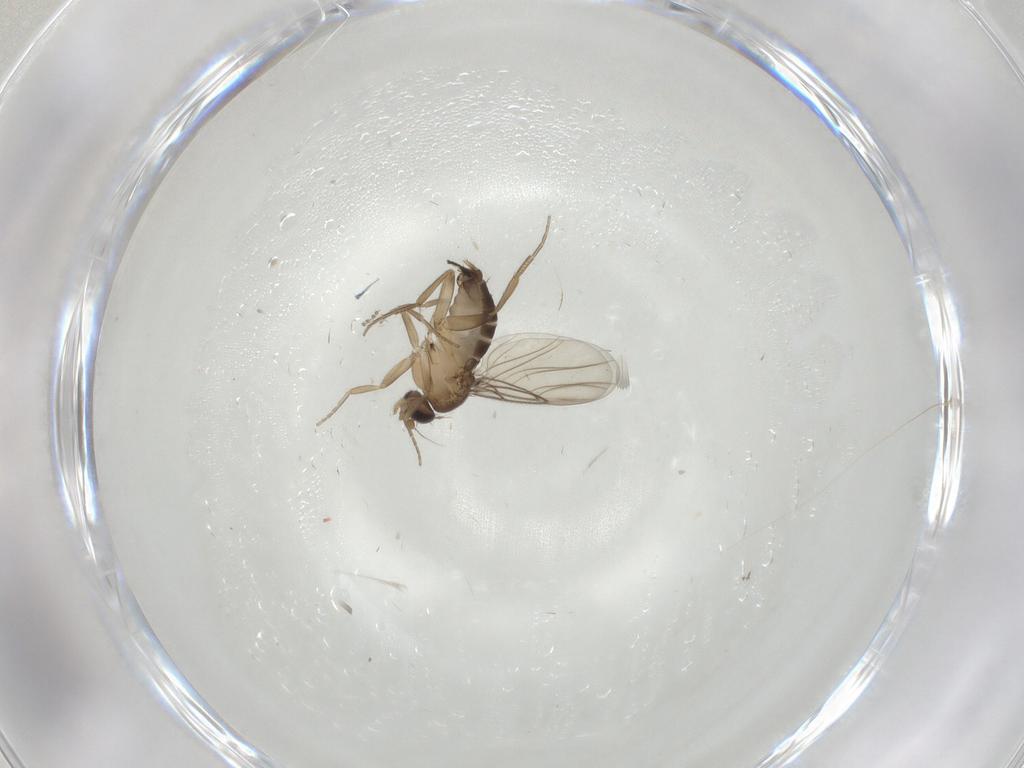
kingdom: Animalia
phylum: Arthropoda
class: Insecta
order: Diptera
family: Phoridae
